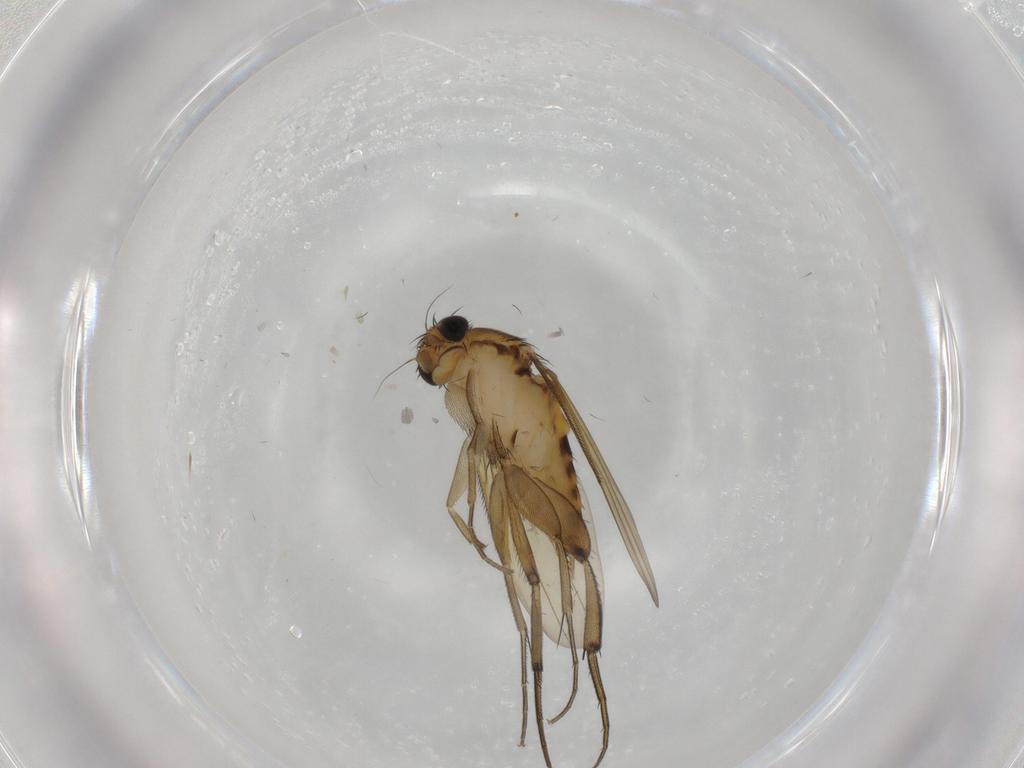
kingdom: Animalia
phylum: Arthropoda
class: Insecta
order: Diptera
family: Phoridae
